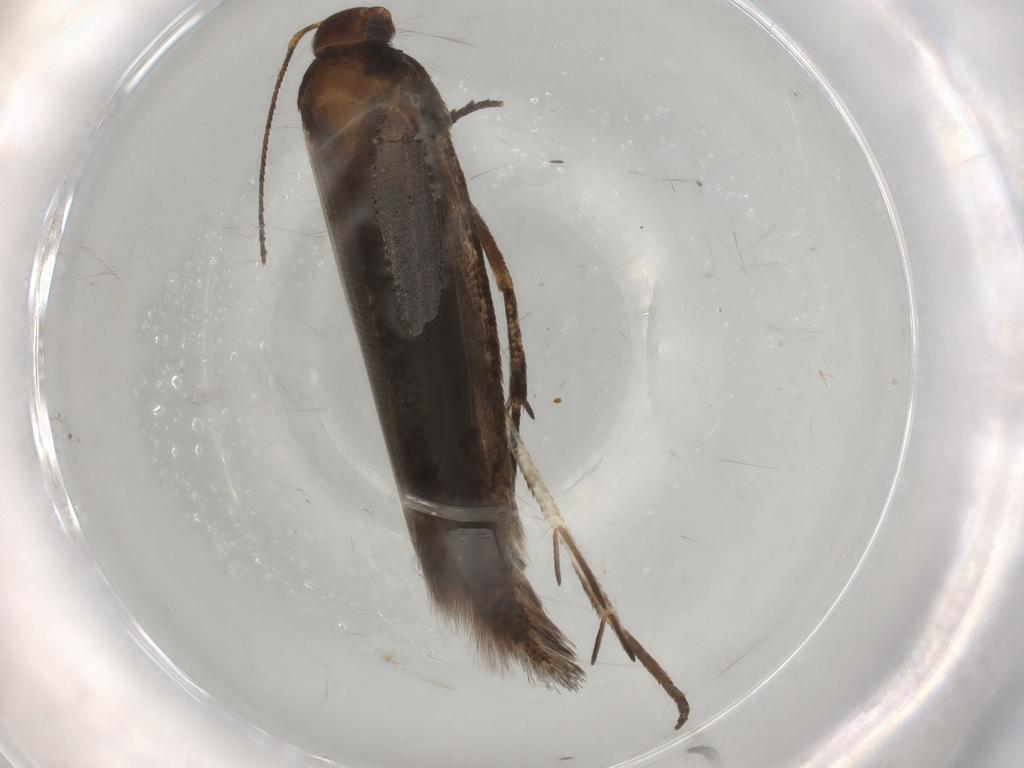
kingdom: Animalia
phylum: Arthropoda
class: Insecta
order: Lepidoptera
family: Gelechiidae
